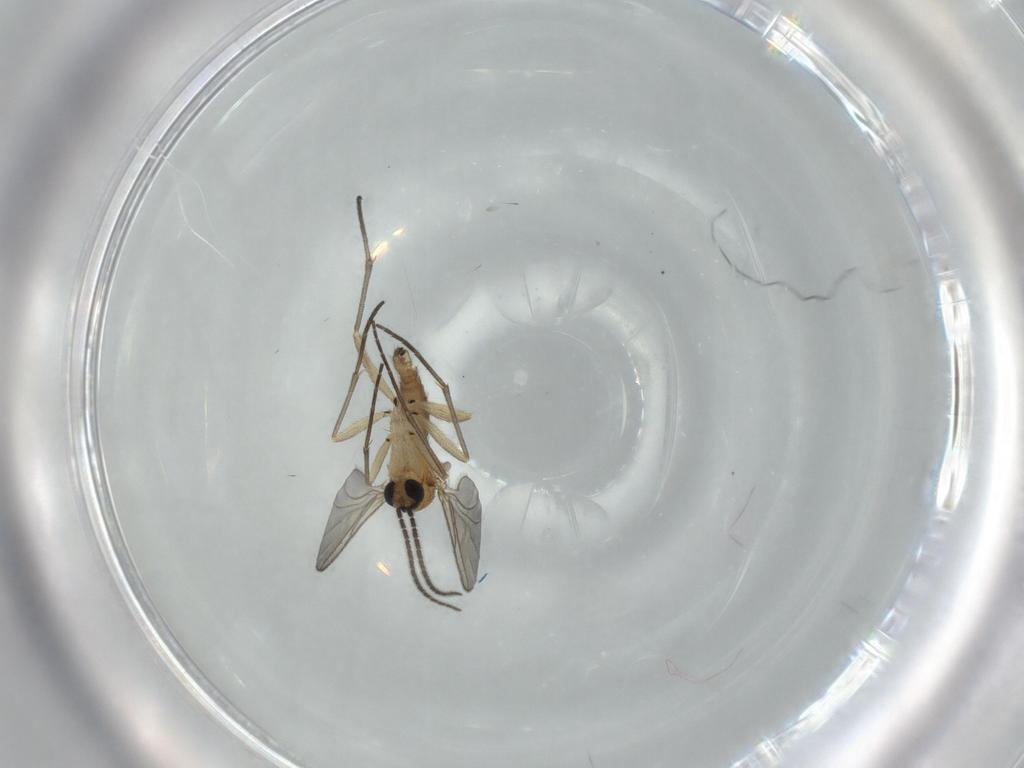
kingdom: Animalia
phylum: Arthropoda
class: Insecta
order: Diptera
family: Sciaridae
